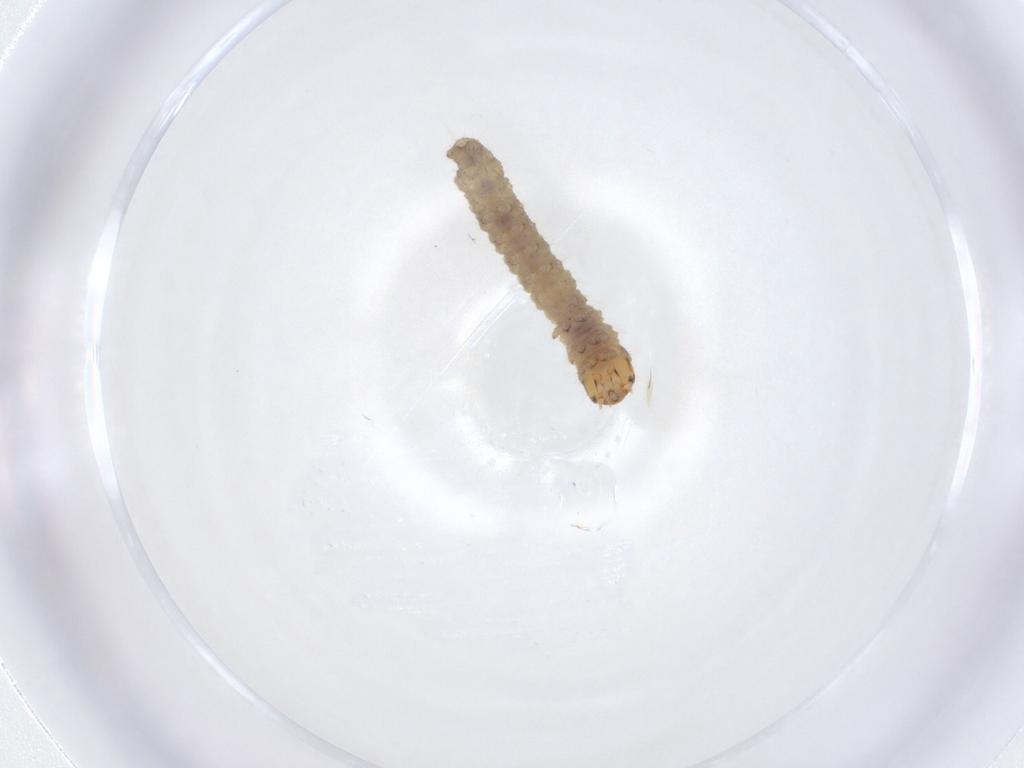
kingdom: Animalia
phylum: Arthropoda
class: Insecta
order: Lepidoptera
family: Tortricidae
